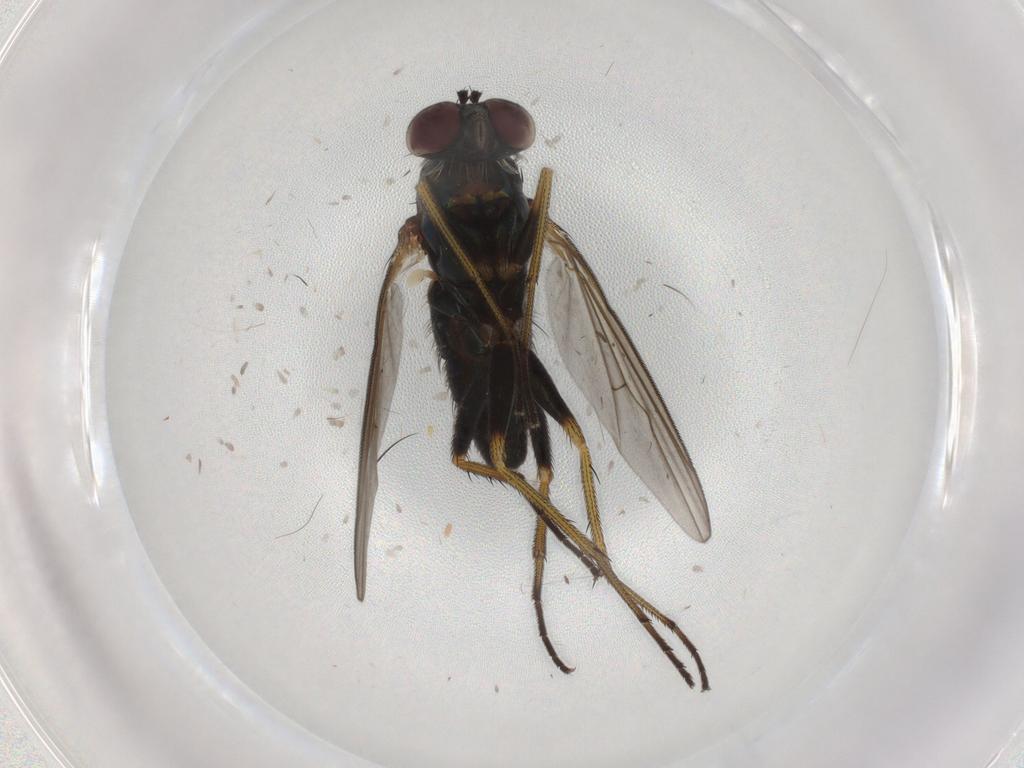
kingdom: Animalia
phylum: Arthropoda
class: Insecta
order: Diptera
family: Dolichopodidae
